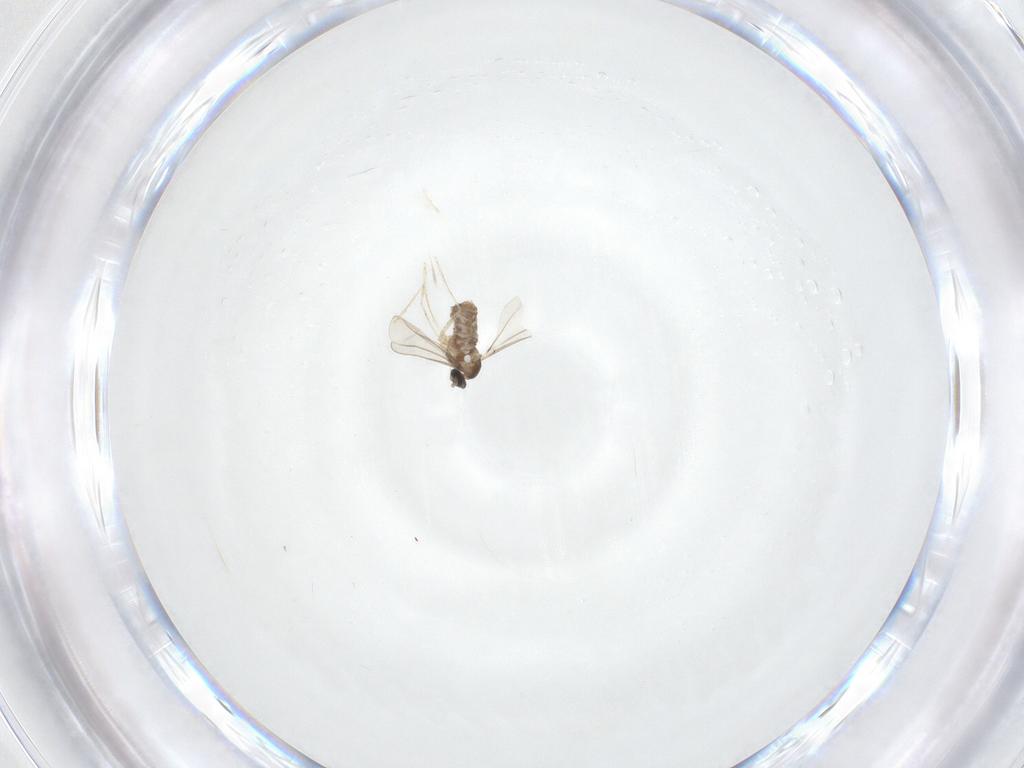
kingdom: Animalia
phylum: Arthropoda
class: Insecta
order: Diptera
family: Cecidomyiidae
